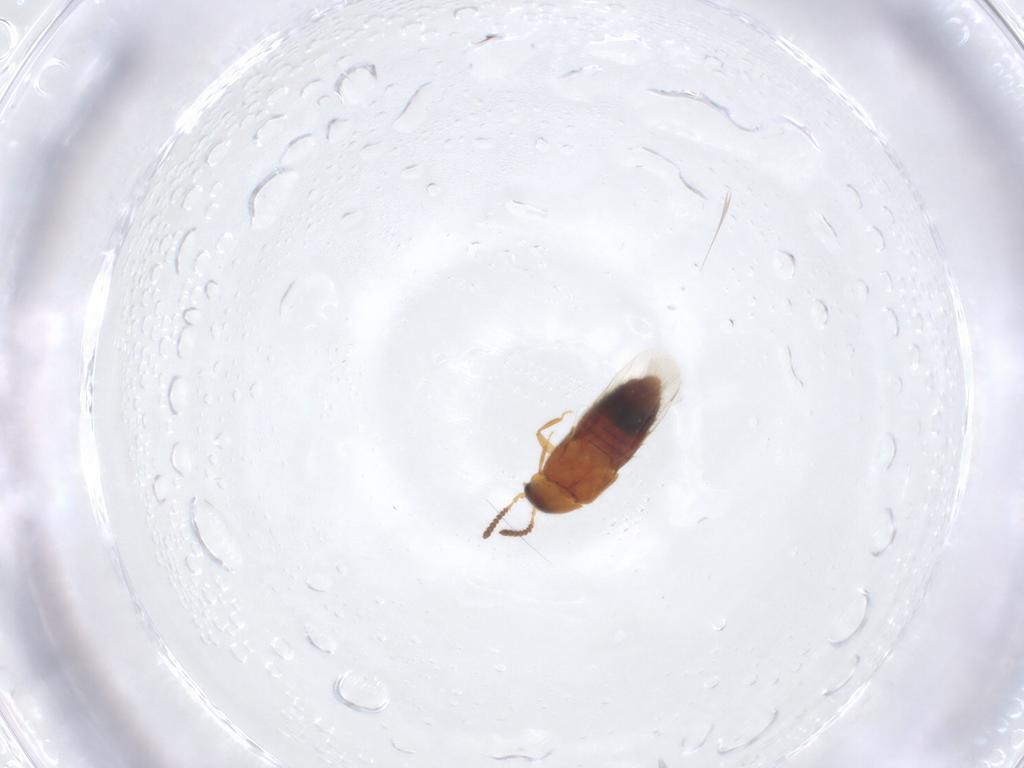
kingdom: Animalia
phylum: Arthropoda
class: Insecta
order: Coleoptera
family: Staphylinidae
